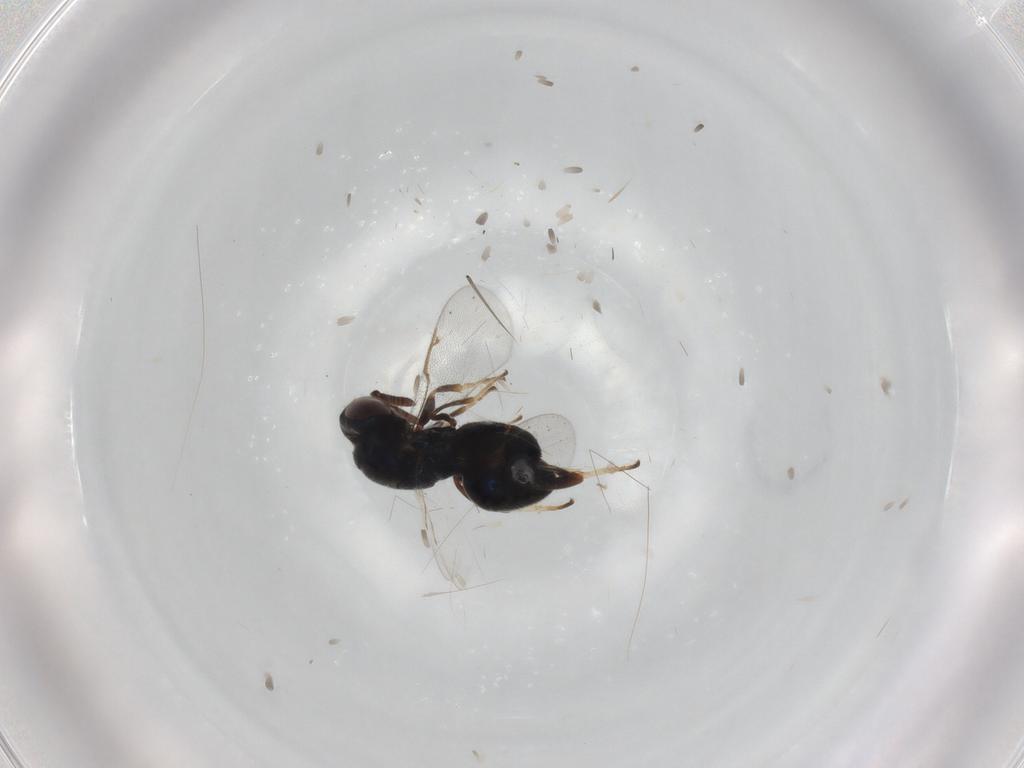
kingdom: Animalia
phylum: Arthropoda
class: Insecta
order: Hymenoptera
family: Torymidae
